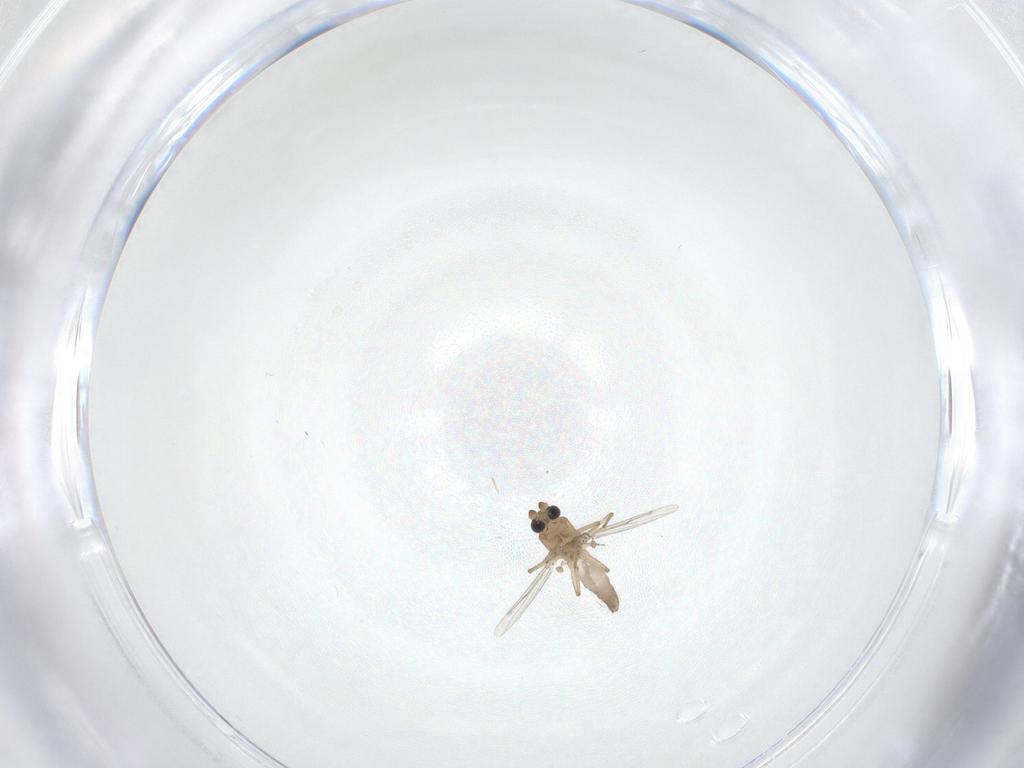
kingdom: Animalia
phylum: Arthropoda
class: Insecta
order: Diptera
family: Ceratopogonidae
